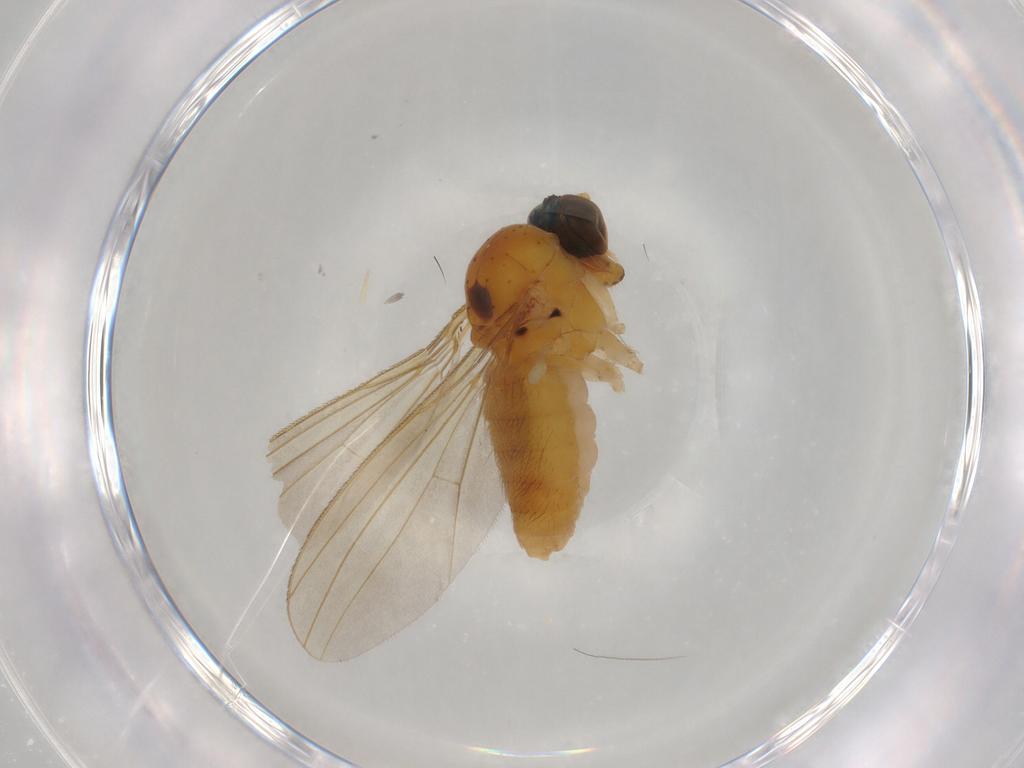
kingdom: Animalia
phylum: Arthropoda
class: Insecta
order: Diptera
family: Dolichopodidae
